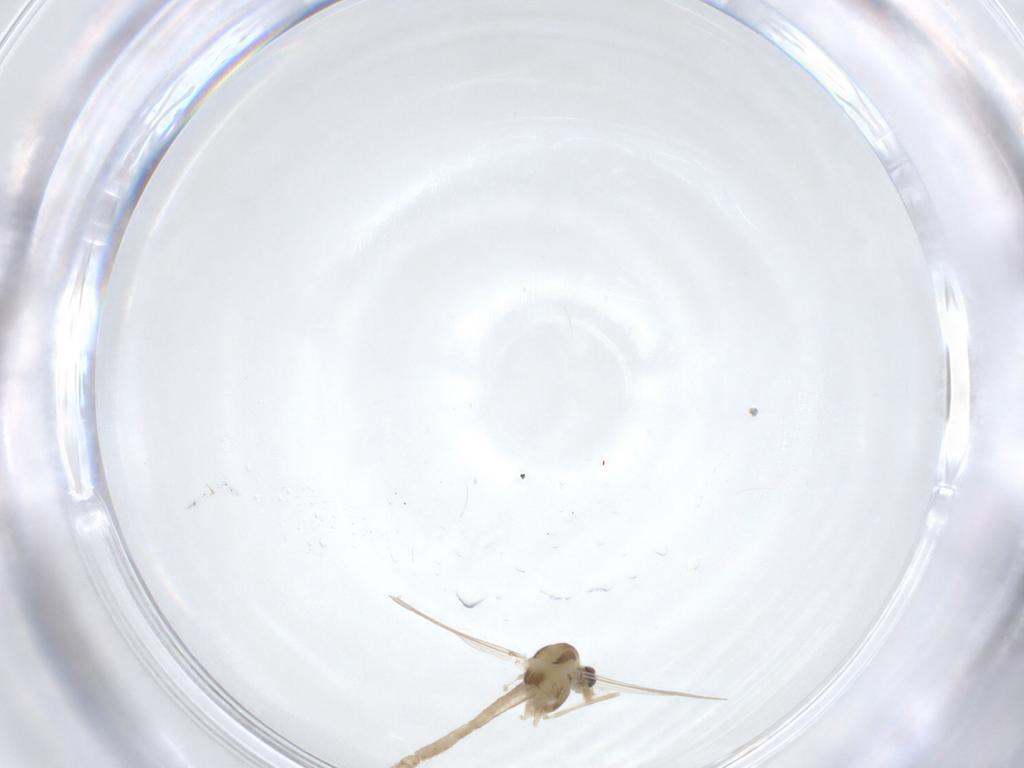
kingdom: Animalia
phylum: Arthropoda
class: Insecta
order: Diptera
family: Chironomidae
